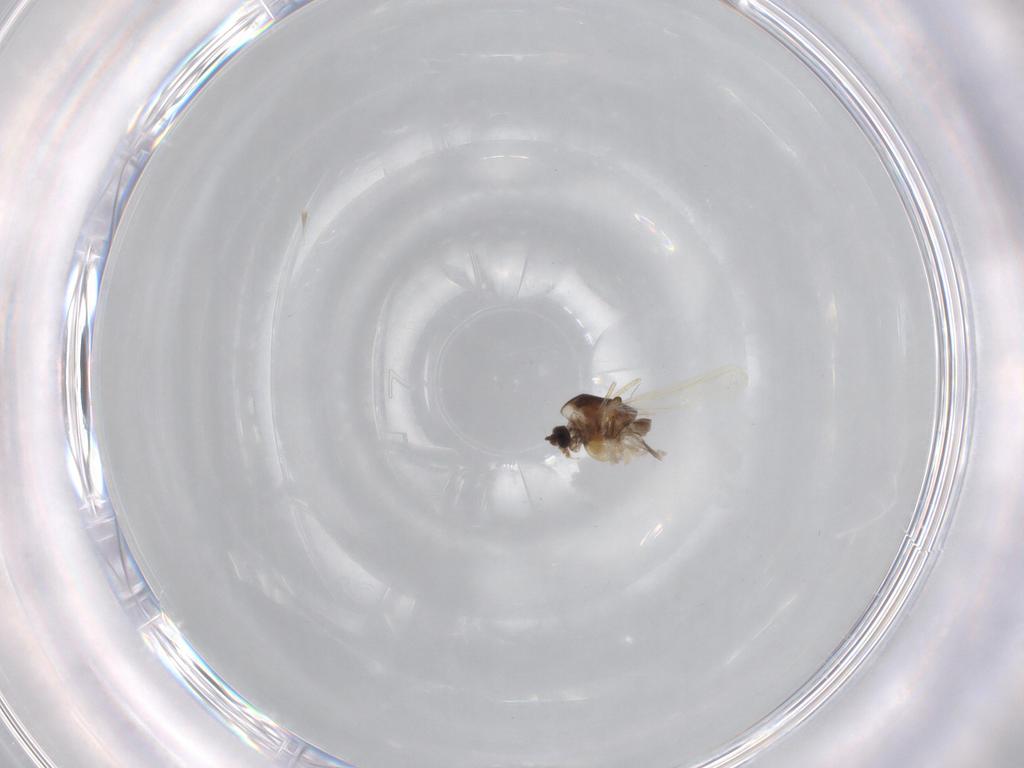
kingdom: Animalia
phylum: Arthropoda
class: Insecta
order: Diptera
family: Chironomidae
